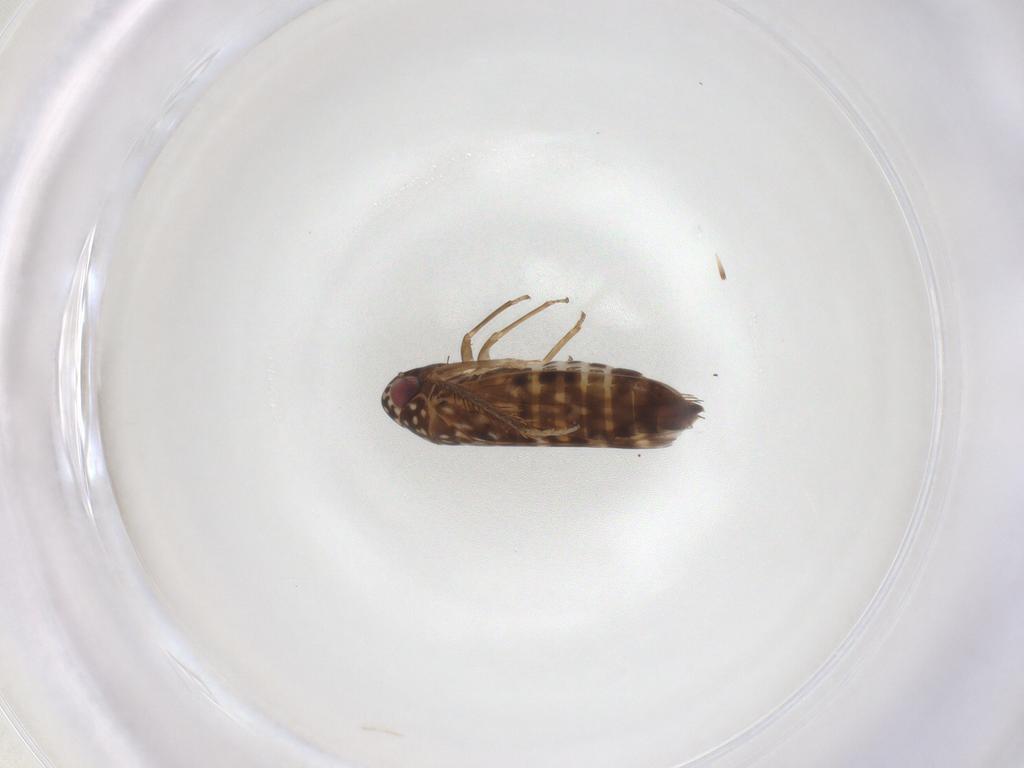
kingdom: Animalia
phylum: Arthropoda
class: Insecta
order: Hemiptera
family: Cicadellidae
